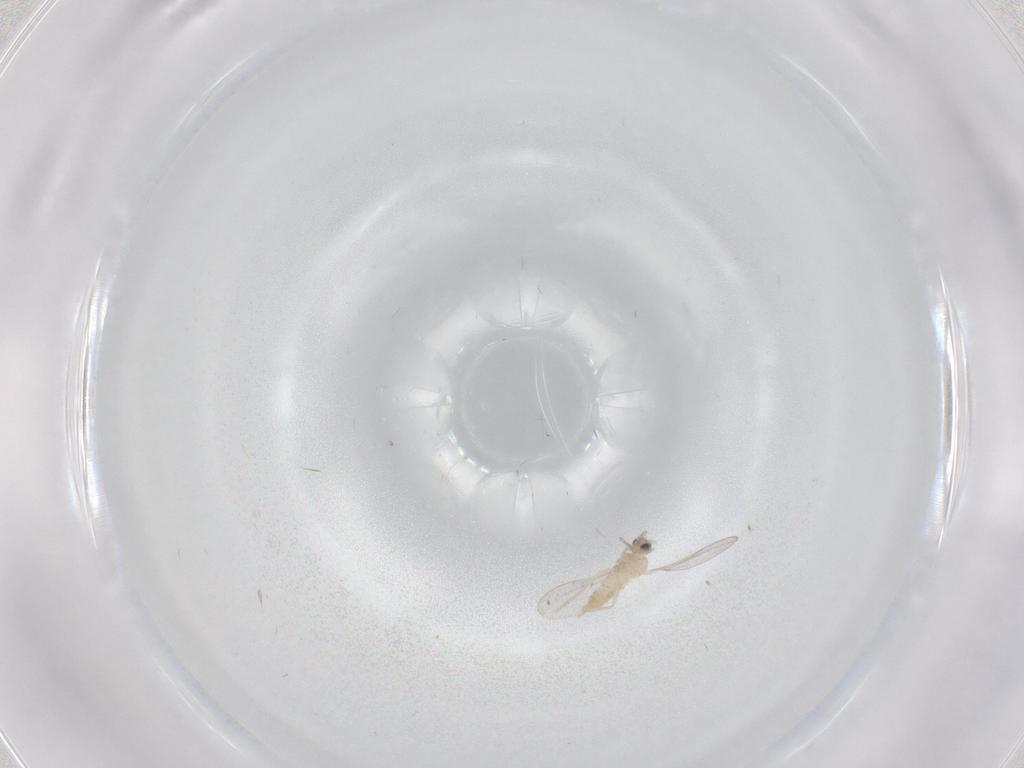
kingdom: Animalia
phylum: Arthropoda
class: Insecta
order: Diptera
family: Cecidomyiidae
